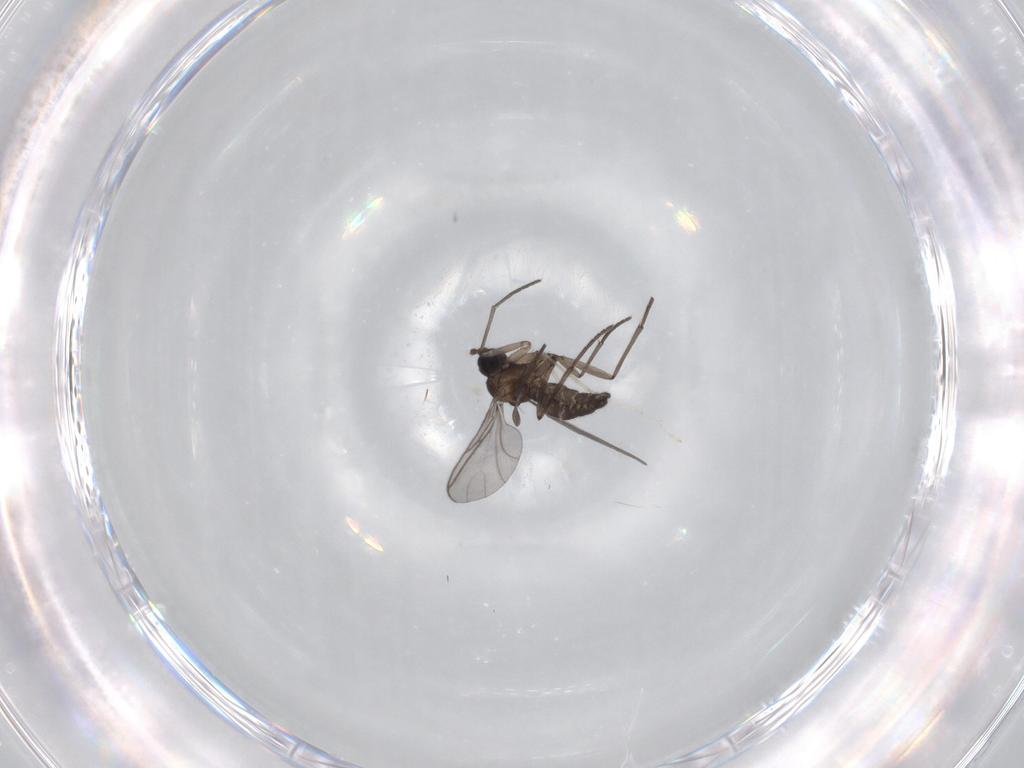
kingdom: Animalia
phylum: Arthropoda
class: Insecta
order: Diptera
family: Sciaridae
